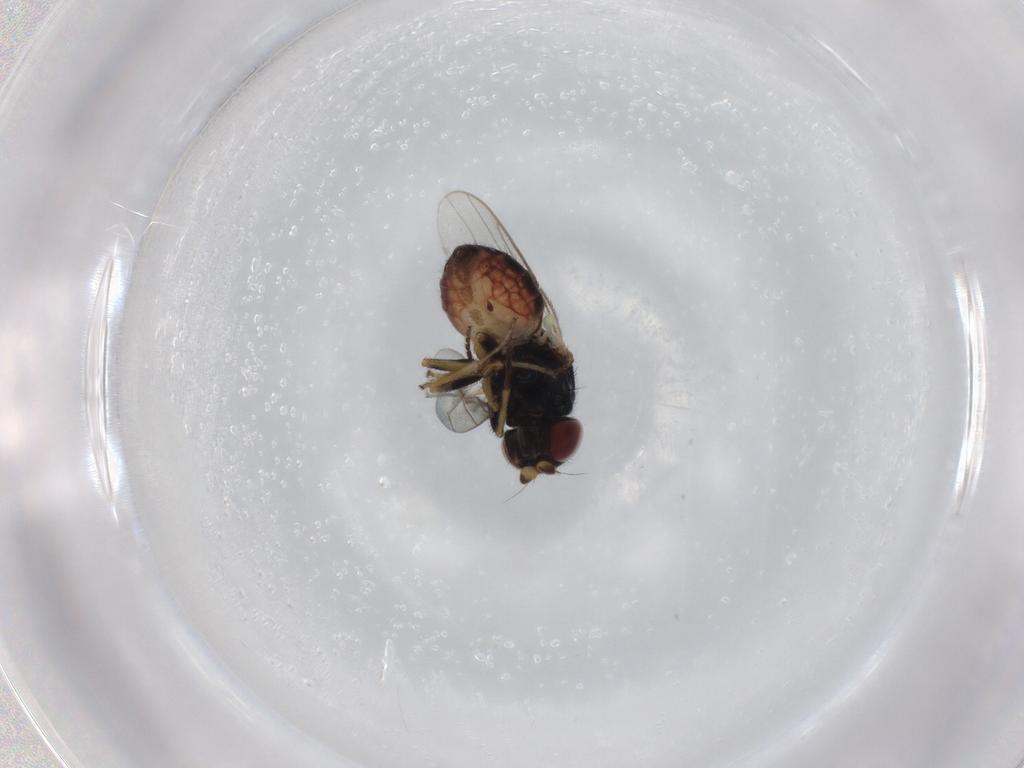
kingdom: Animalia
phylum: Arthropoda
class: Insecta
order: Diptera
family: Chloropidae
